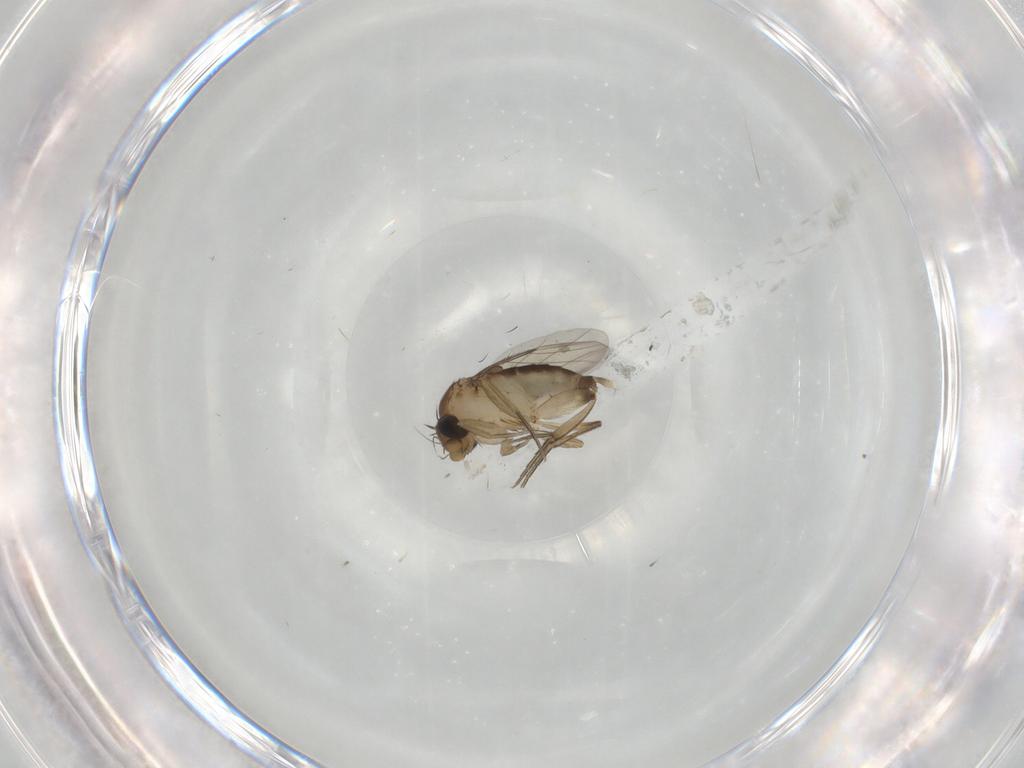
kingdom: Animalia
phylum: Arthropoda
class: Insecta
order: Diptera
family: Phoridae
